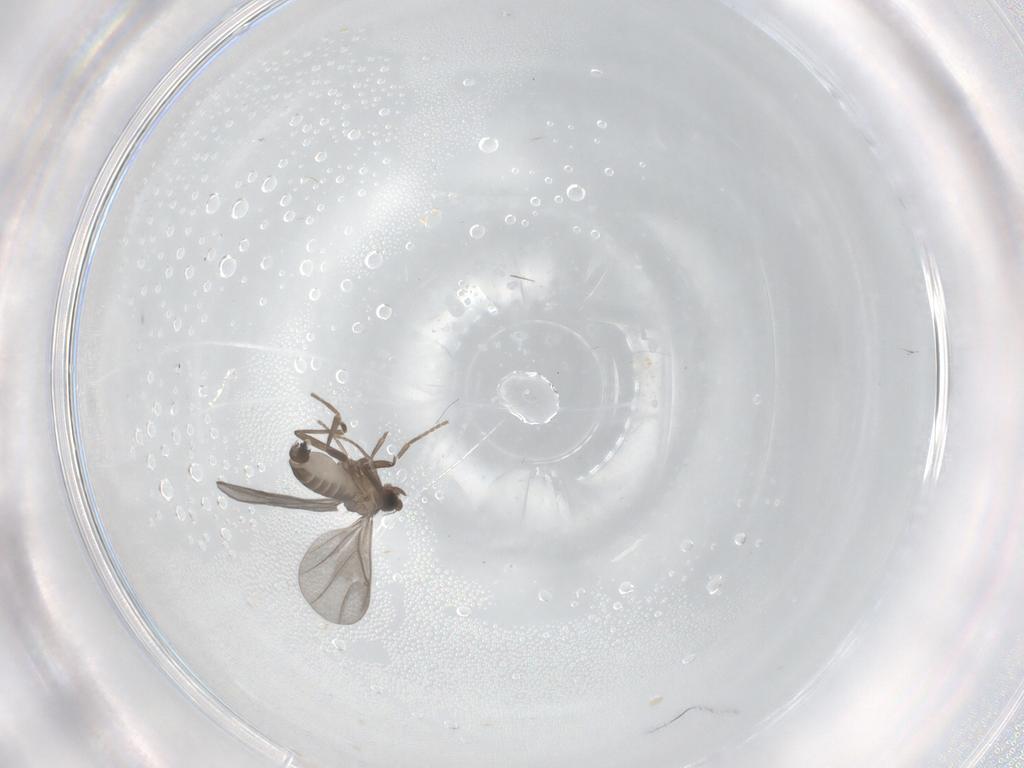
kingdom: Animalia
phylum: Arthropoda
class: Insecta
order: Diptera
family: Phoridae
